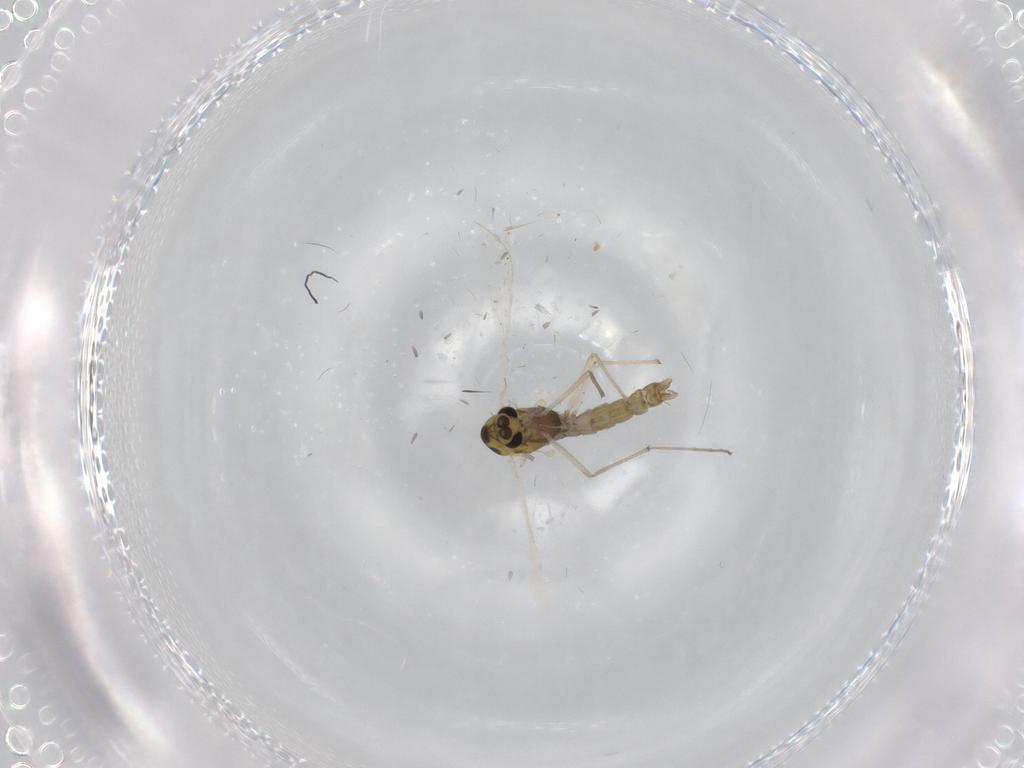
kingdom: Animalia
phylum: Arthropoda
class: Insecta
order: Diptera
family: Chironomidae
